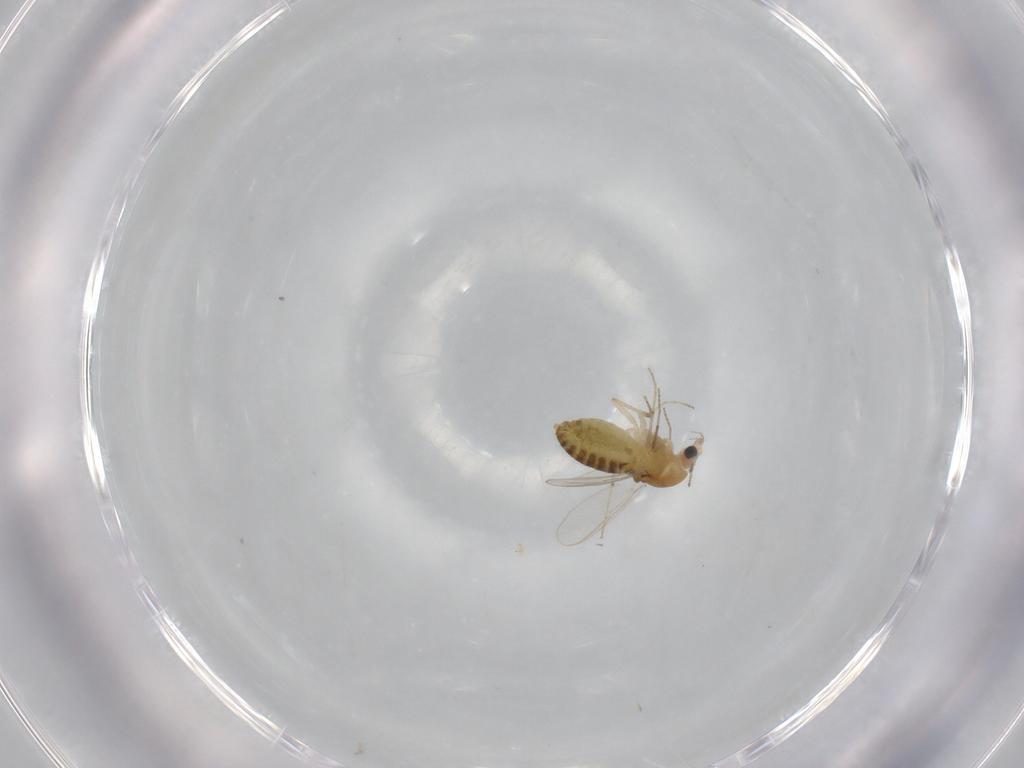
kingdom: Animalia
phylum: Arthropoda
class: Insecta
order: Diptera
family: Chironomidae
